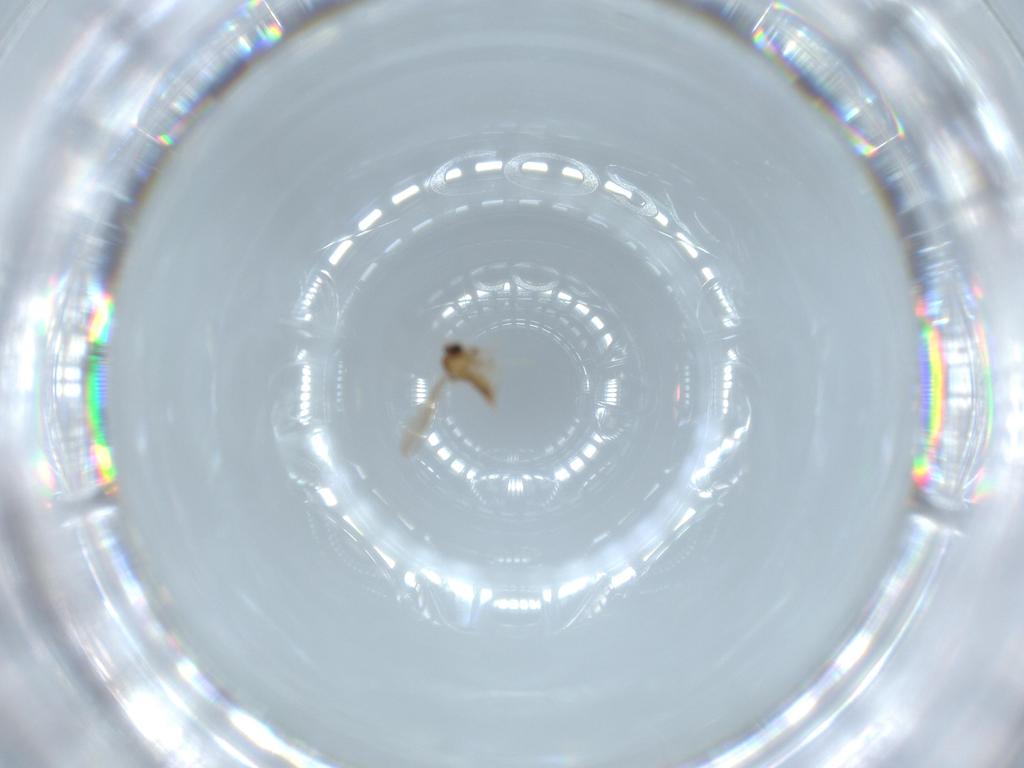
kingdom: Animalia
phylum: Arthropoda
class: Insecta
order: Diptera
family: Cecidomyiidae
